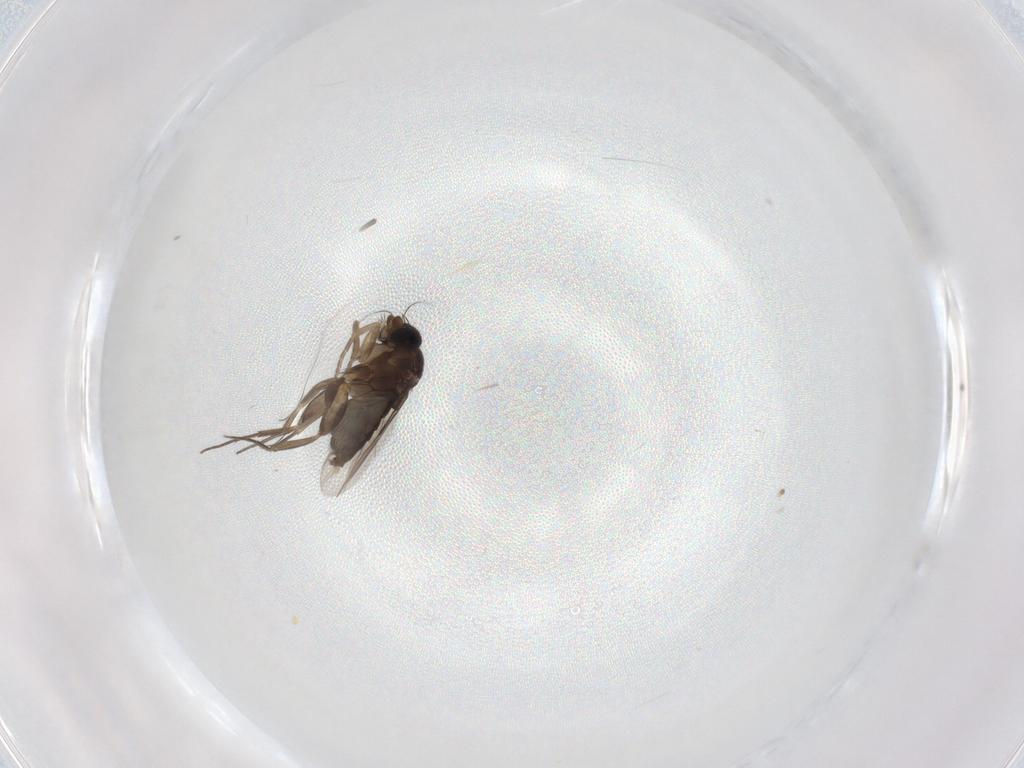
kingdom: Animalia
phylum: Arthropoda
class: Insecta
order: Diptera
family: Phoridae
